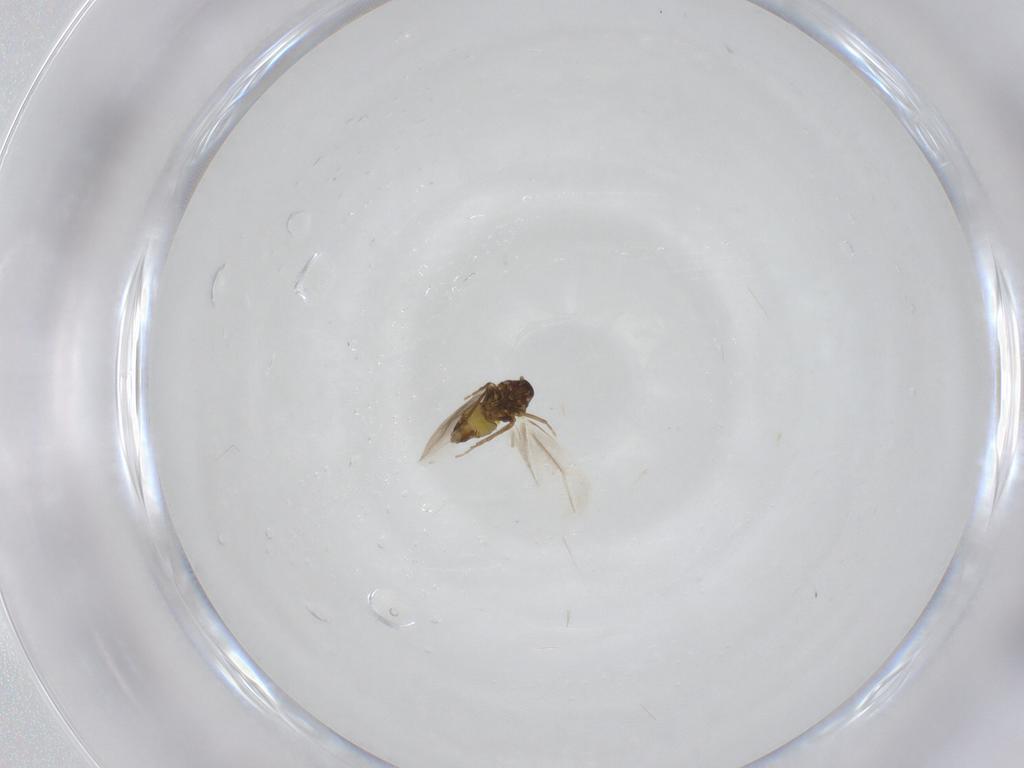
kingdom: Animalia
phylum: Arthropoda
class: Insecta
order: Hemiptera
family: Aleyrodidae
